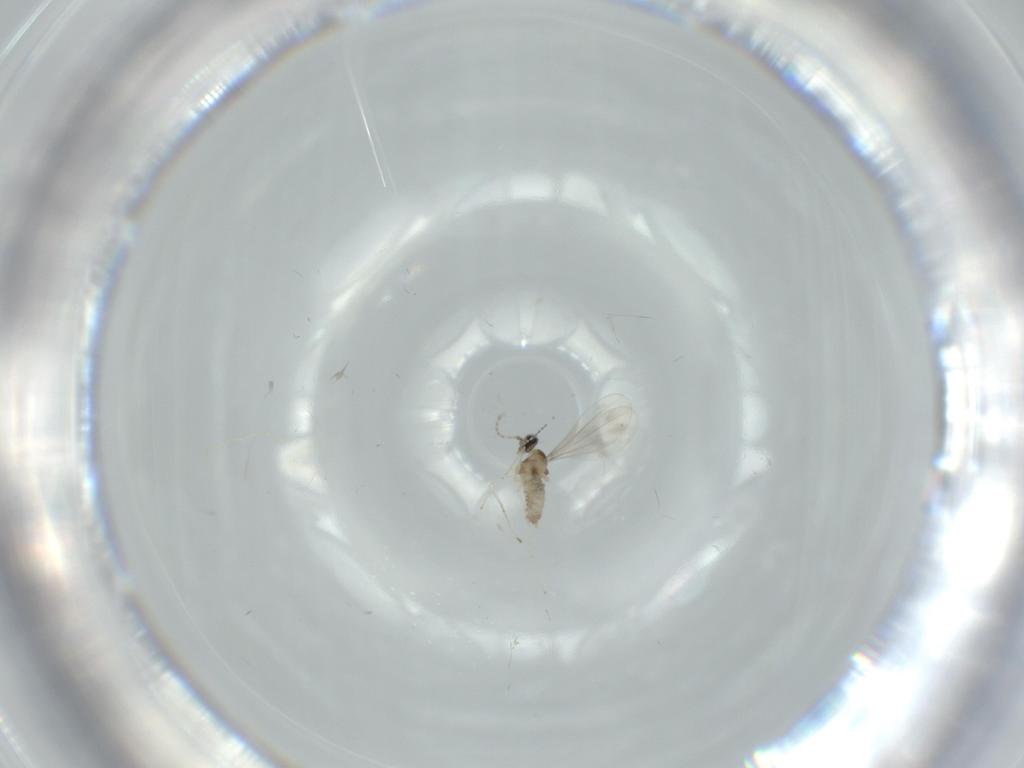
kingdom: Animalia
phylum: Arthropoda
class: Insecta
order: Diptera
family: Cecidomyiidae
